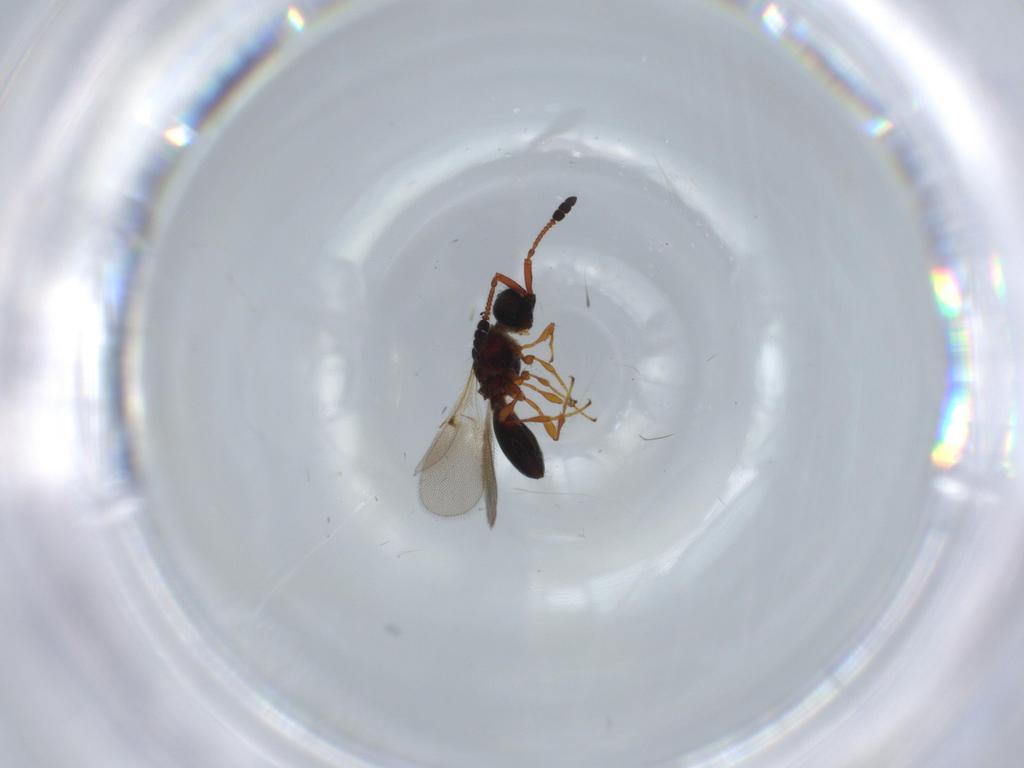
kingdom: Animalia
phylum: Arthropoda
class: Insecta
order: Hymenoptera
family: Diapriidae
